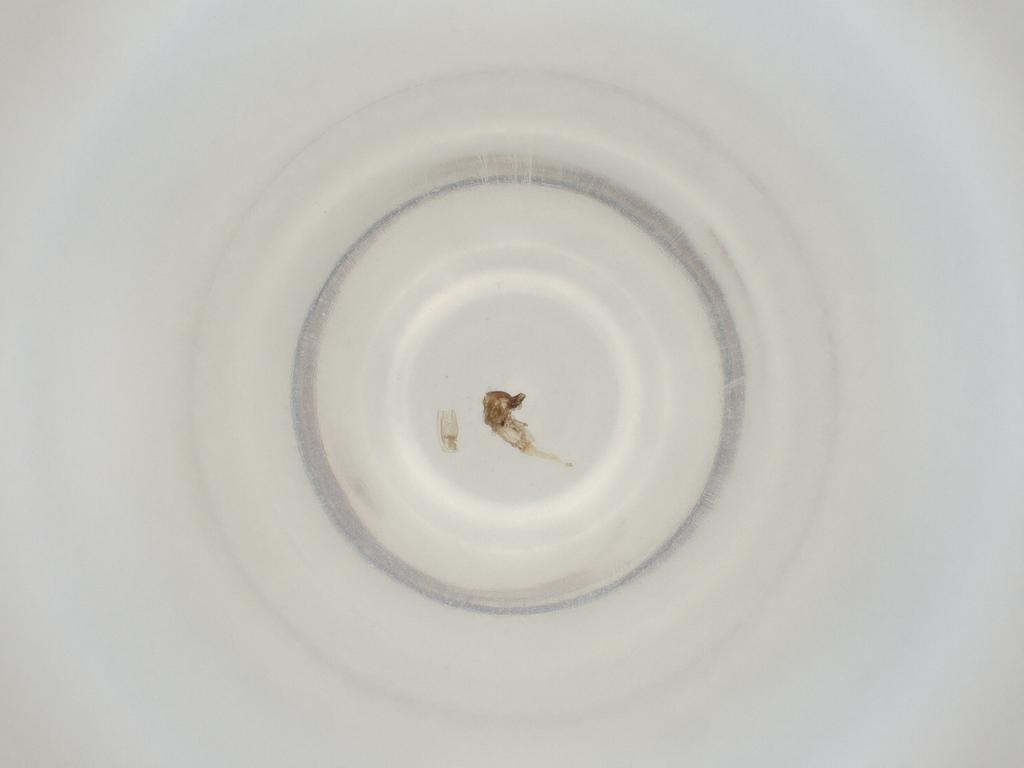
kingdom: Animalia
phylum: Arthropoda
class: Insecta
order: Diptera
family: Cecidomyiidae
